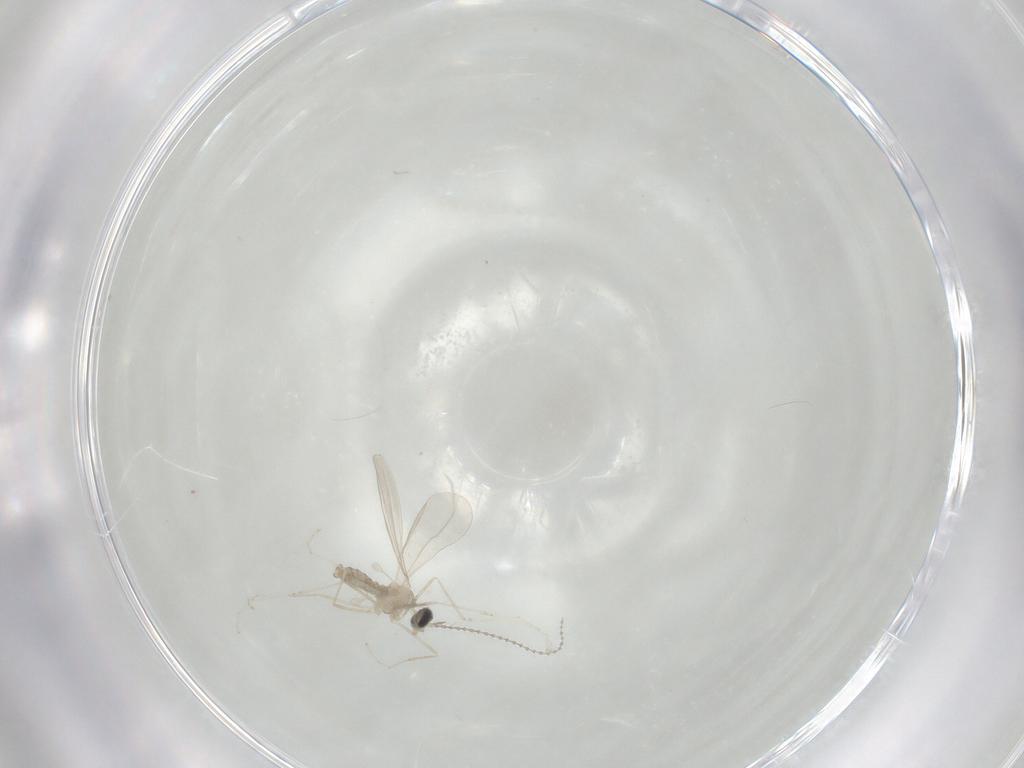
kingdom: Animalia
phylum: Arthropoda
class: Insecta
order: Diptera
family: Cecidomyiidae
